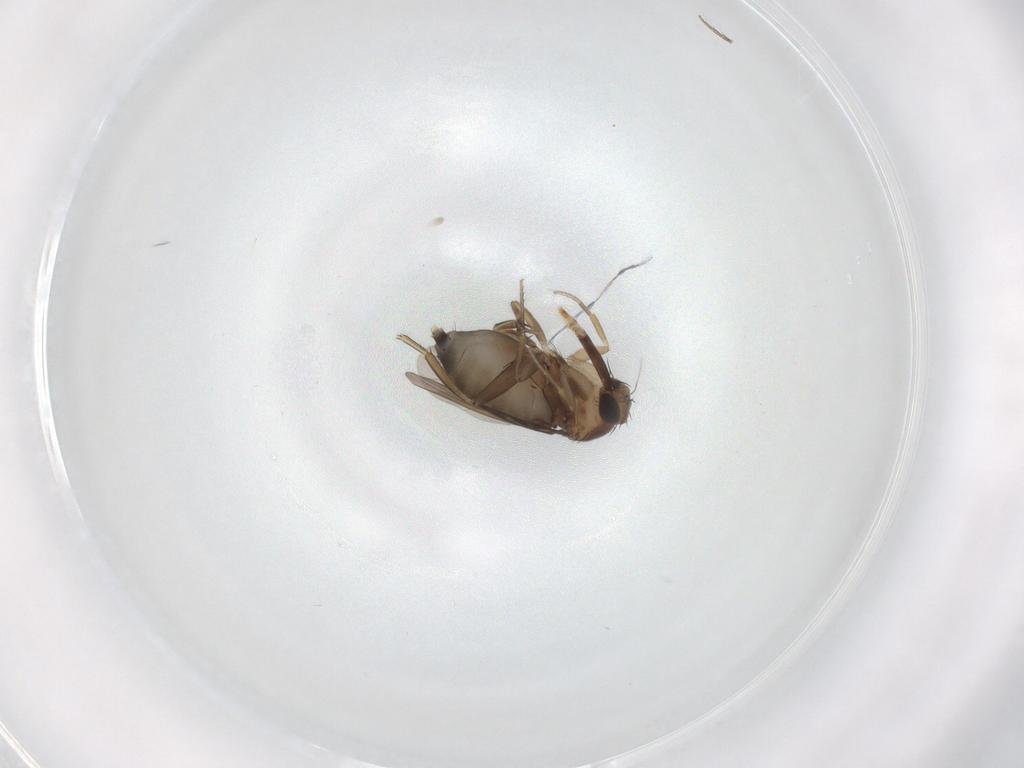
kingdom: Animalia
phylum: Arthropoda
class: Insecta
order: Diptera
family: Phoridae
